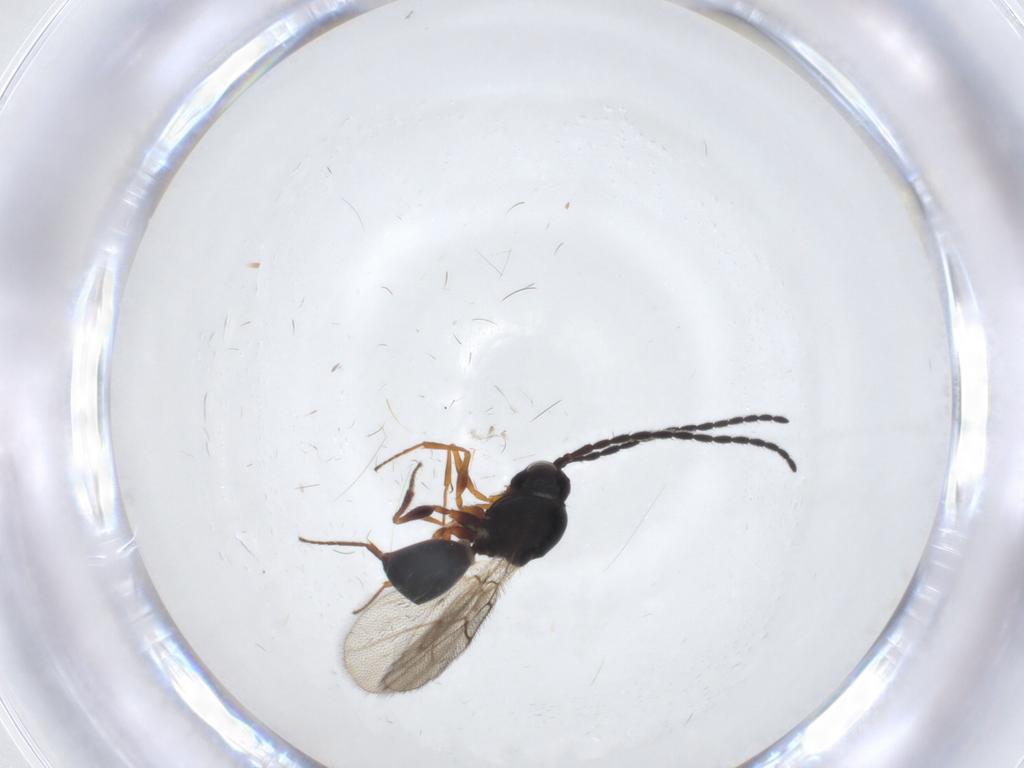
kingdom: Animalia
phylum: Arthropoda
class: Insecta
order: Hymenoptera
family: Figitidae
